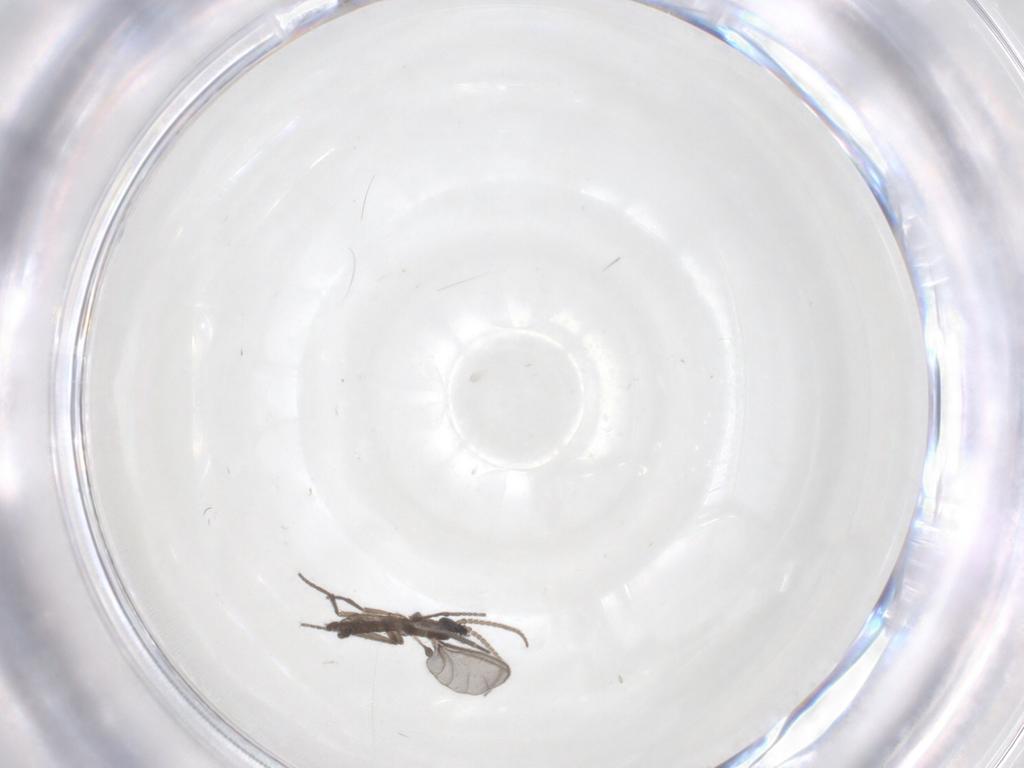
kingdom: Animalia
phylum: Arthropoda
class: Insecta
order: Diptera
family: Sciaridae
